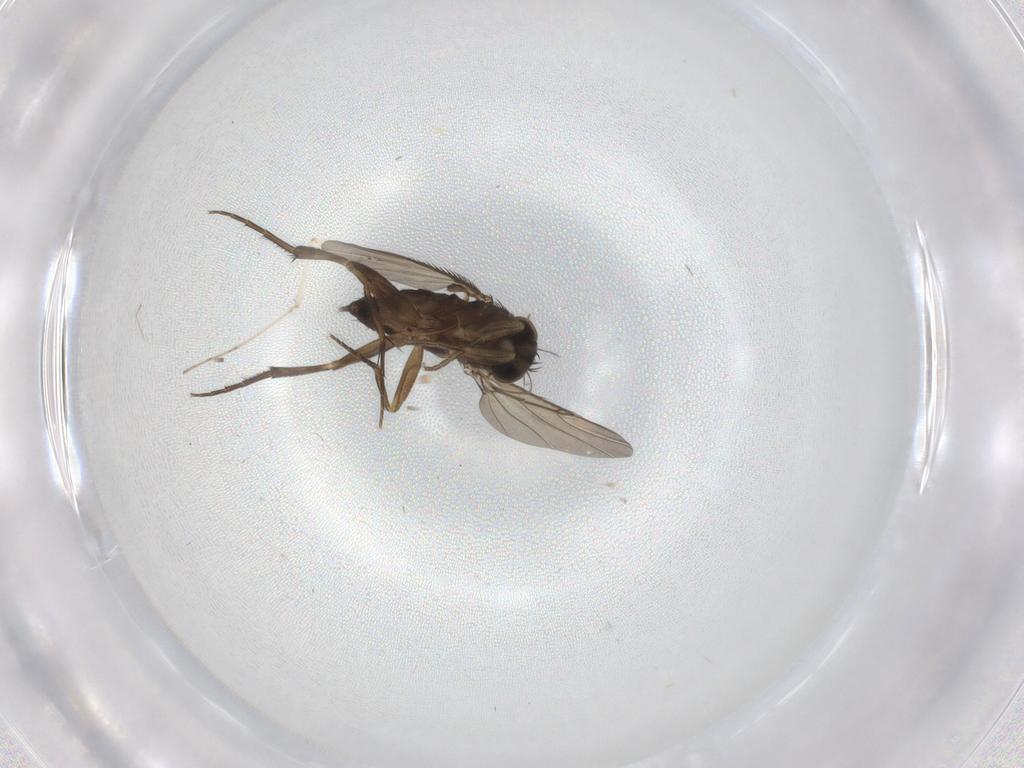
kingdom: Animalia
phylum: Arthropoda
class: Insecta
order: Diptera
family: Phoridae
